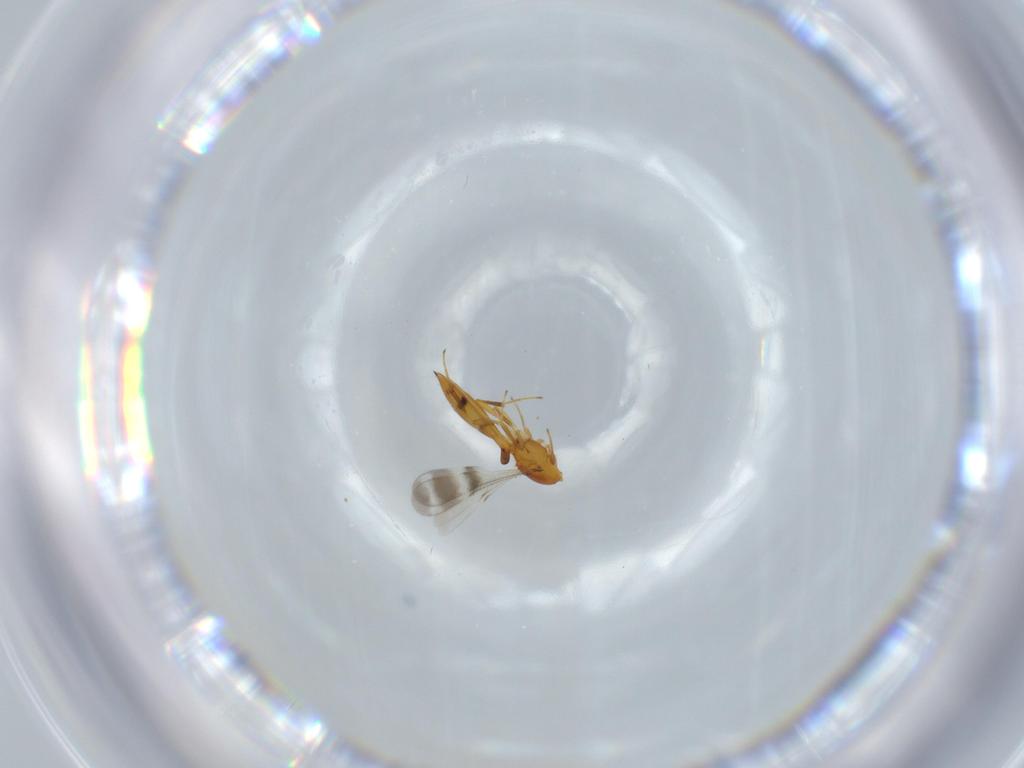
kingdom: Animalia
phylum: Arthropoda
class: Insecta
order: Hymenoptera
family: Scelionidae
